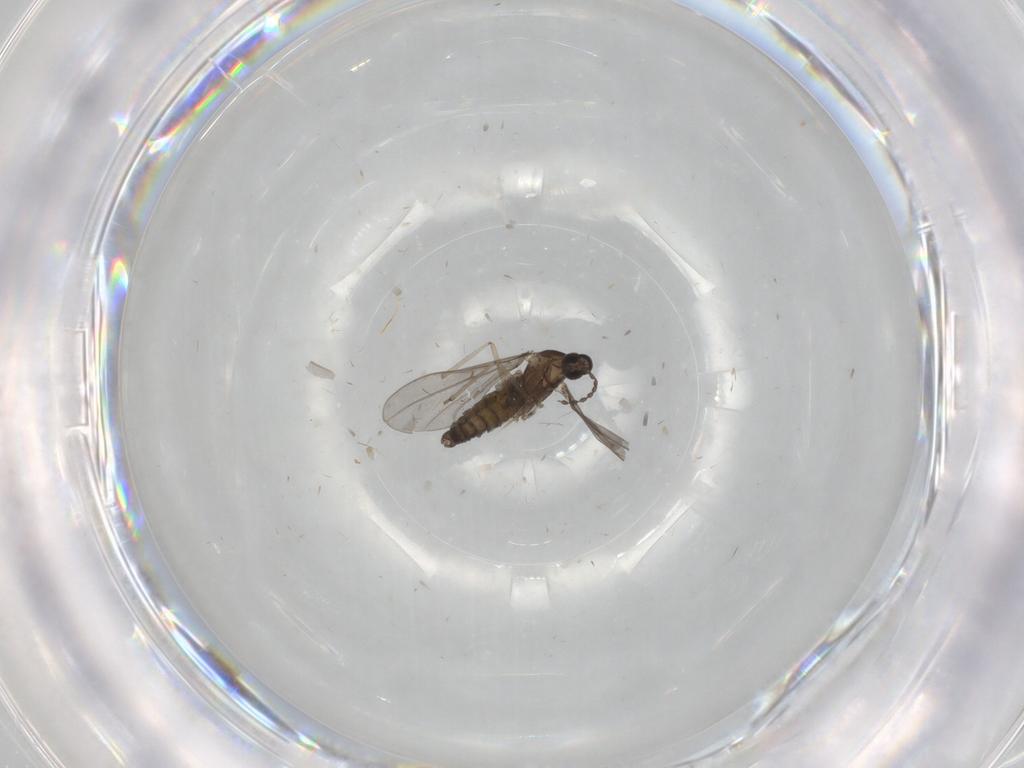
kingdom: Animalia
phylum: Arthropoda
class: Insecta
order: Diptera
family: Cecidomyiidae
